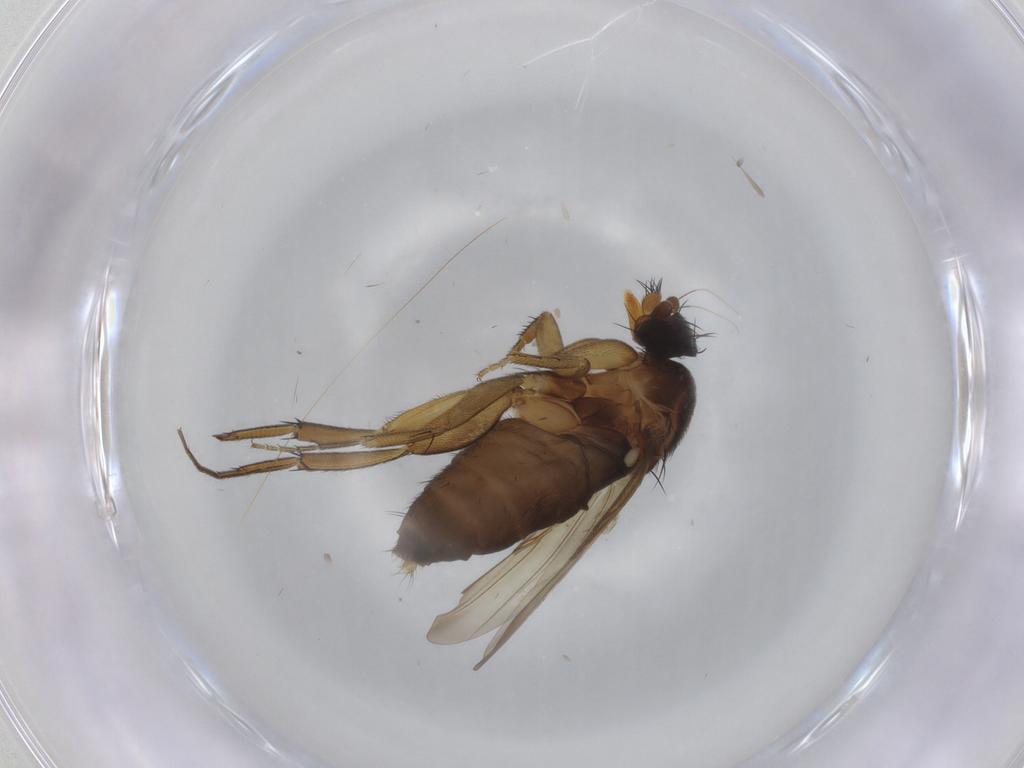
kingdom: Animalia
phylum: Arthropoda
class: Insecta
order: Diptera
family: Phoridae
